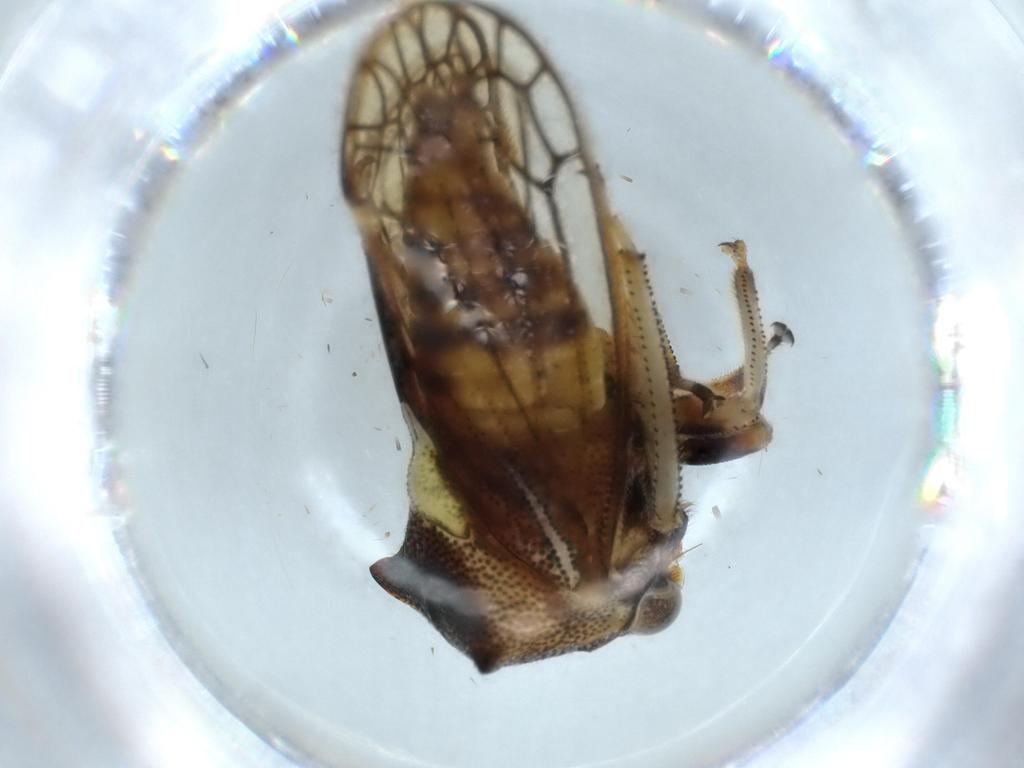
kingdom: Animalia
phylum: Arthropoda
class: Insecta
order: Hemiptera
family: Membracidae
